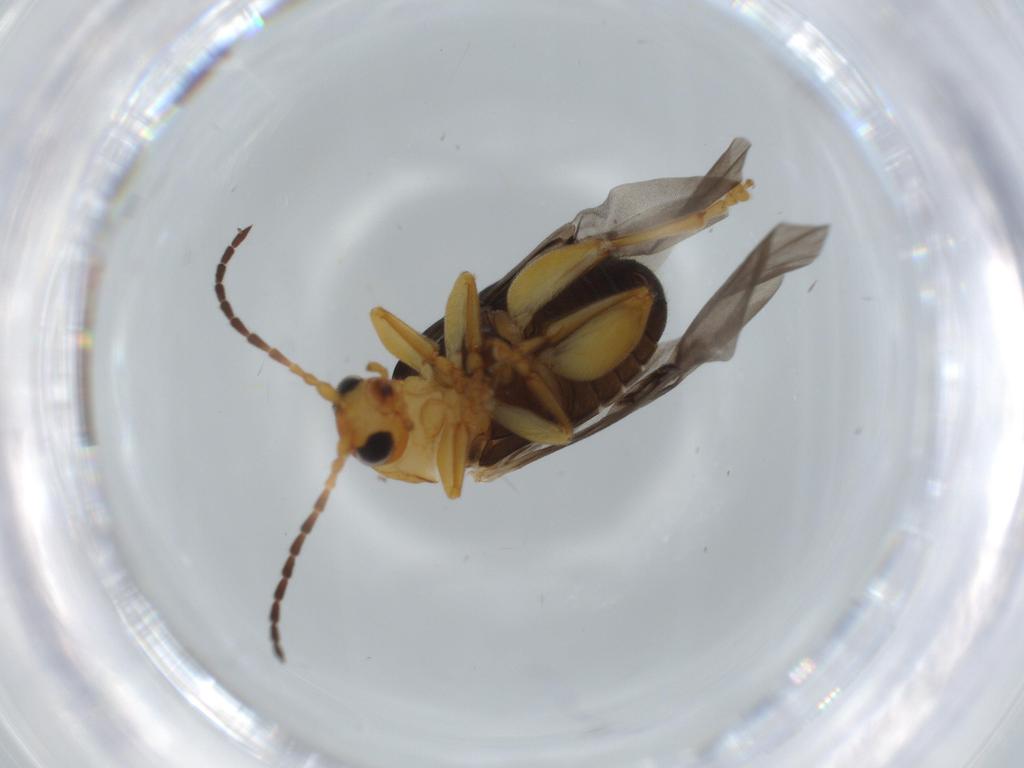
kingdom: Animalia
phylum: Arthropoda
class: Insecta
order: Coleoptera
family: Chrysomelidae
